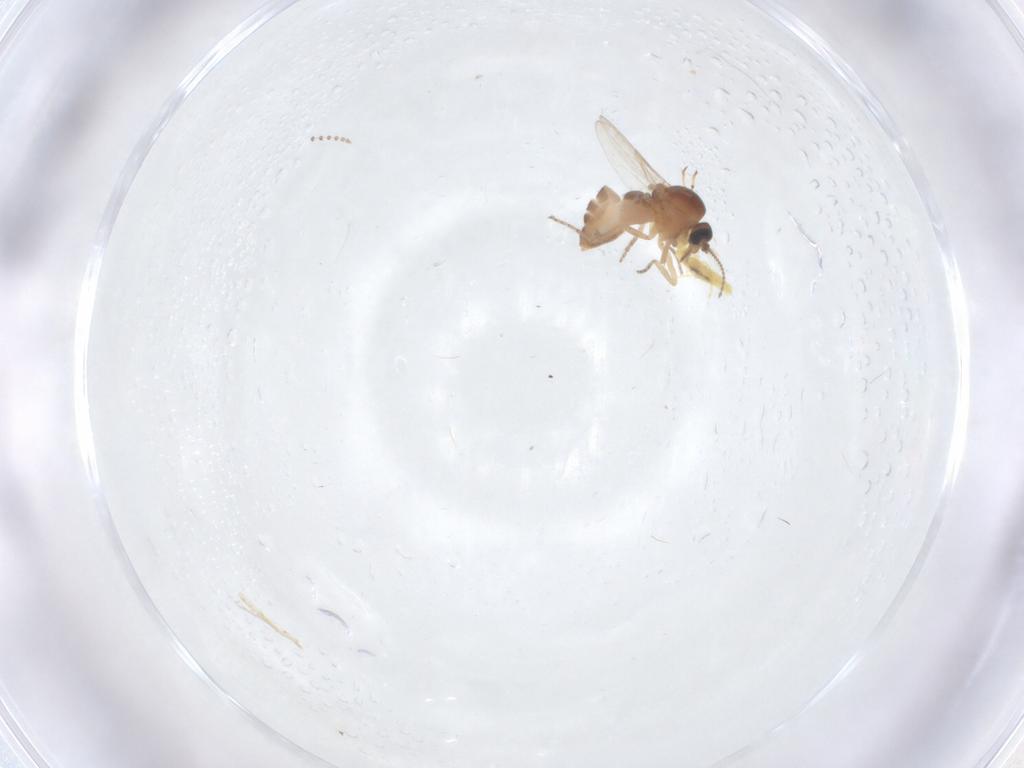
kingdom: Animalia
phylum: Arthropoda
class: Insecta
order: Diptera
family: Ceratopogonidae
